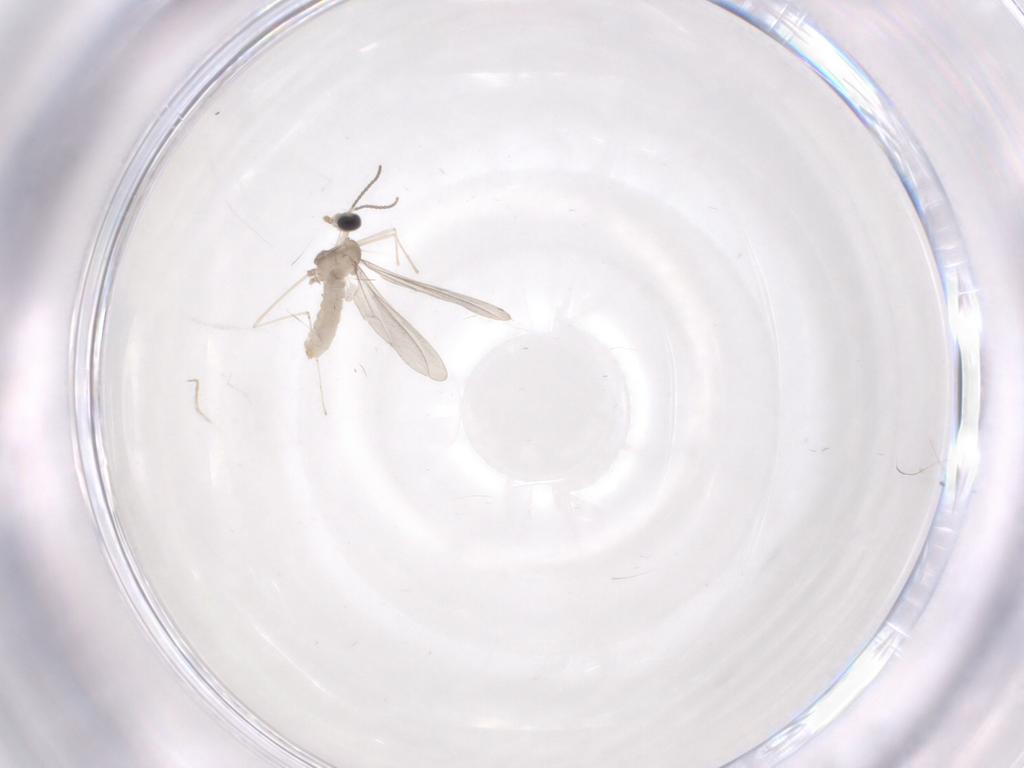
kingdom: Animalia
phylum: Arthropoda
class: Insecta
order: Diptera
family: Cecidomyiidae
